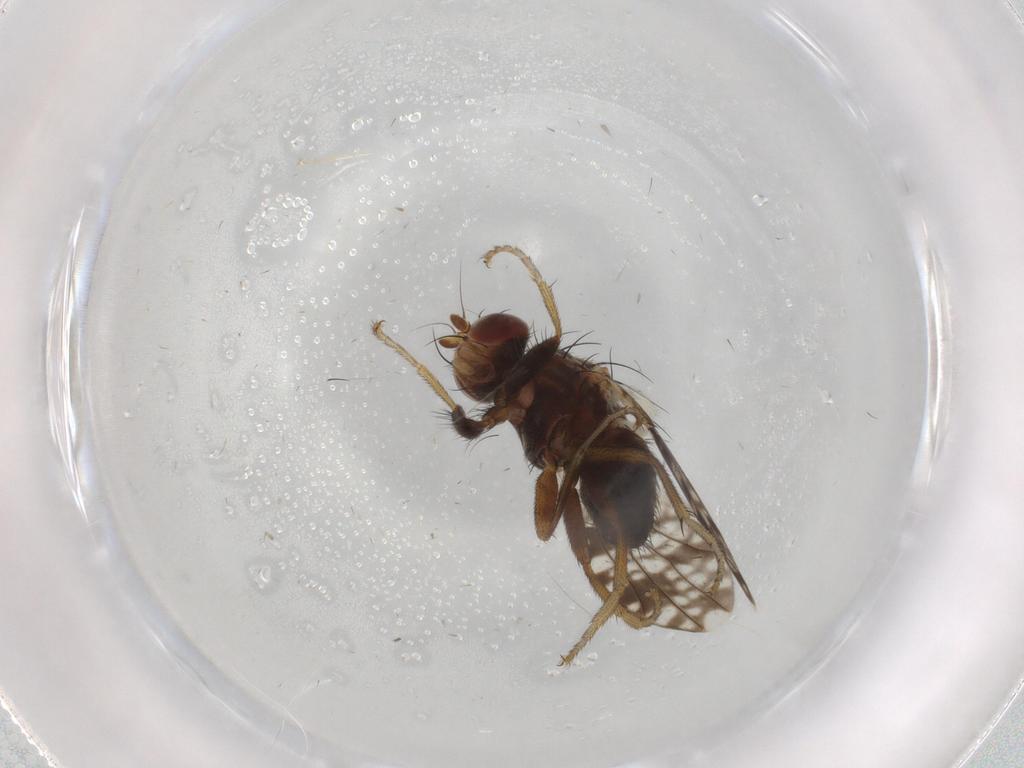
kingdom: Animalia
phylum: Arthropoda
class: Insecta
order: Diptera
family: Tephritidae
